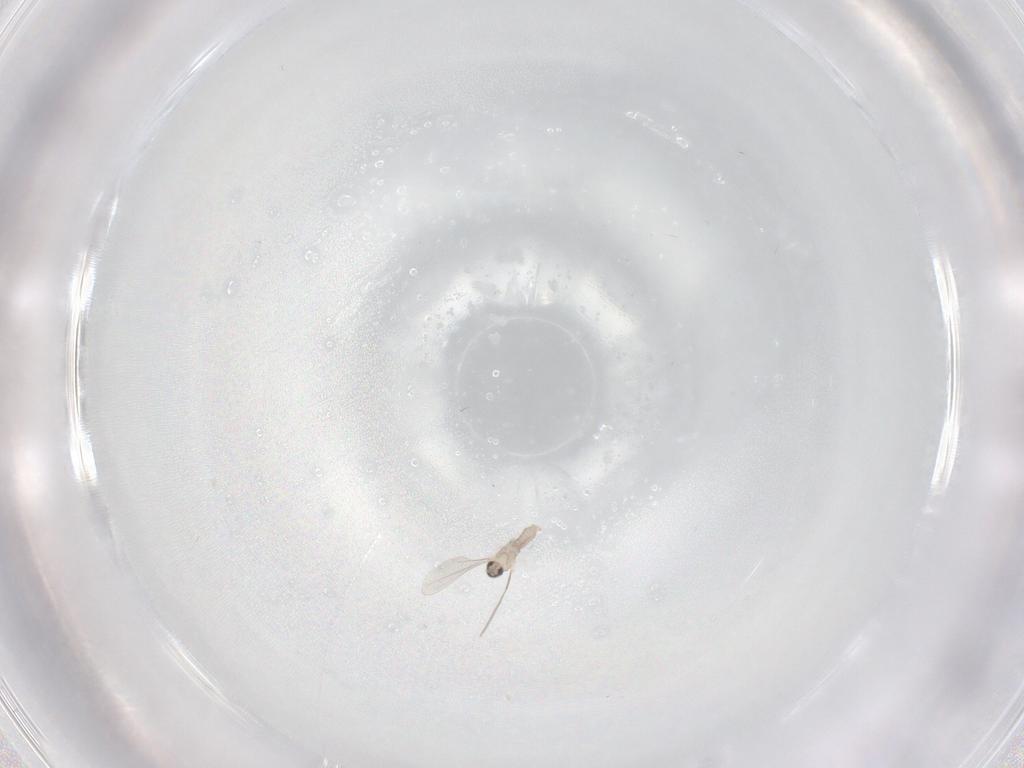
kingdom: Animalia
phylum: Arthropoda
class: Insecta
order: Diptera
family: Cecidomyiidae
